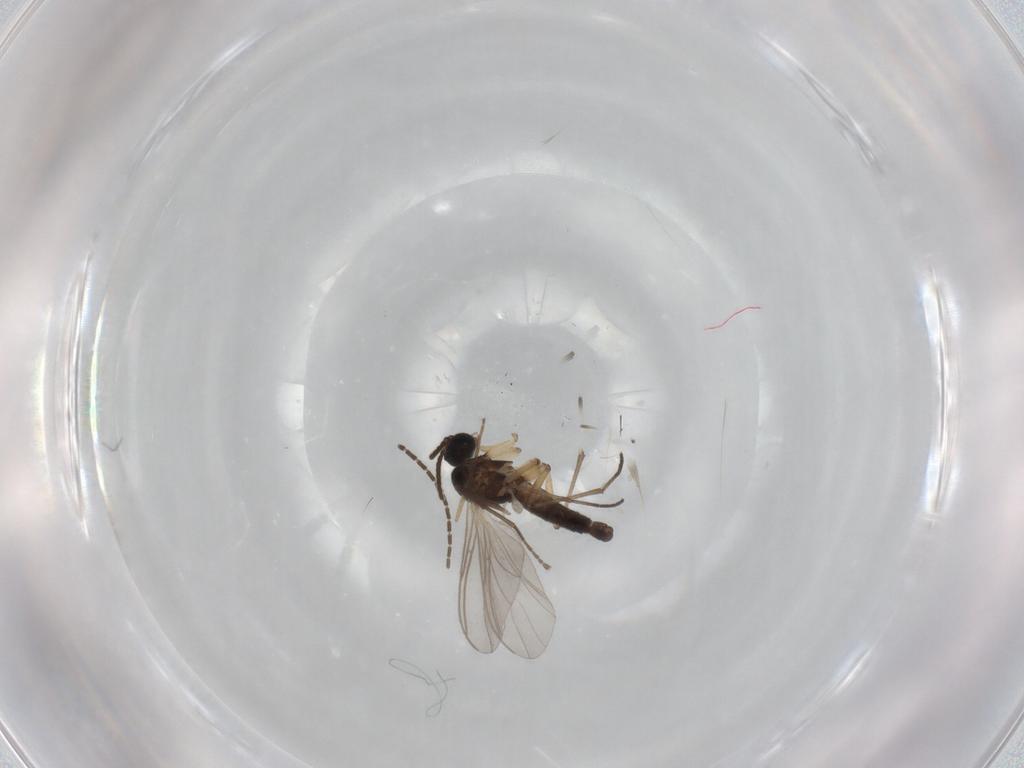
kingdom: Animalia
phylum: Arthropoda
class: Insecta
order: Diptera
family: Sciaridae
